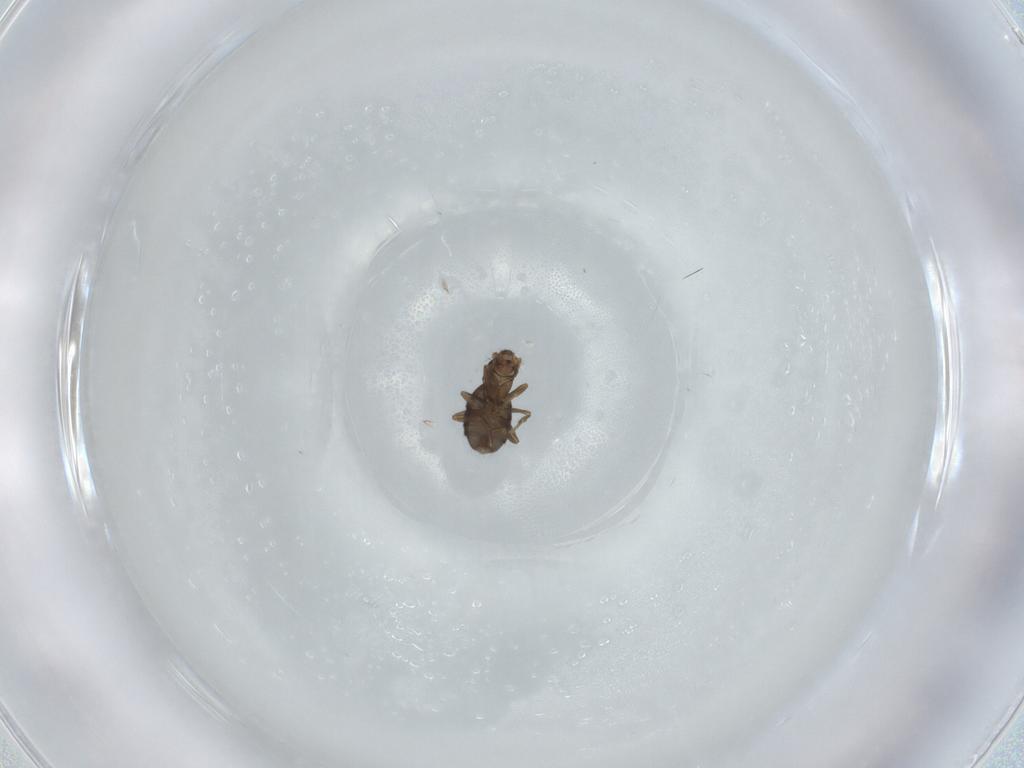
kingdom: Animalia
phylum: Arthropoda
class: Insecta
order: Diptera
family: Phoridae
